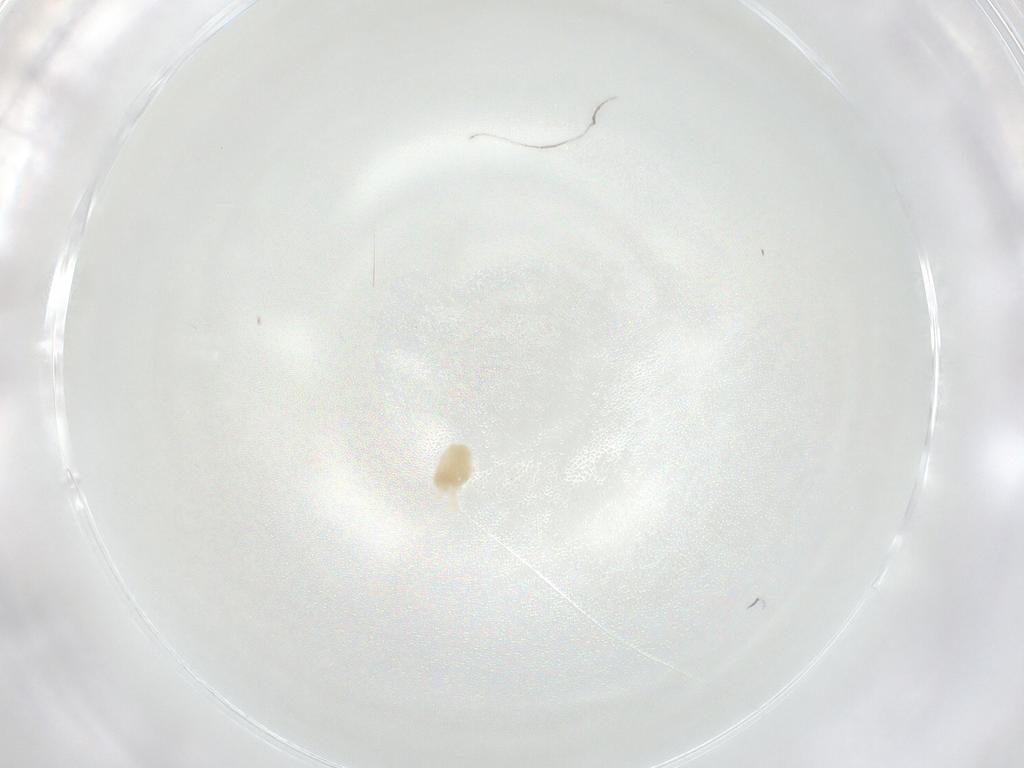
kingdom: Animalia
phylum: Arthropoda
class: Arachnida
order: Trombidiformes
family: Eupodidae
